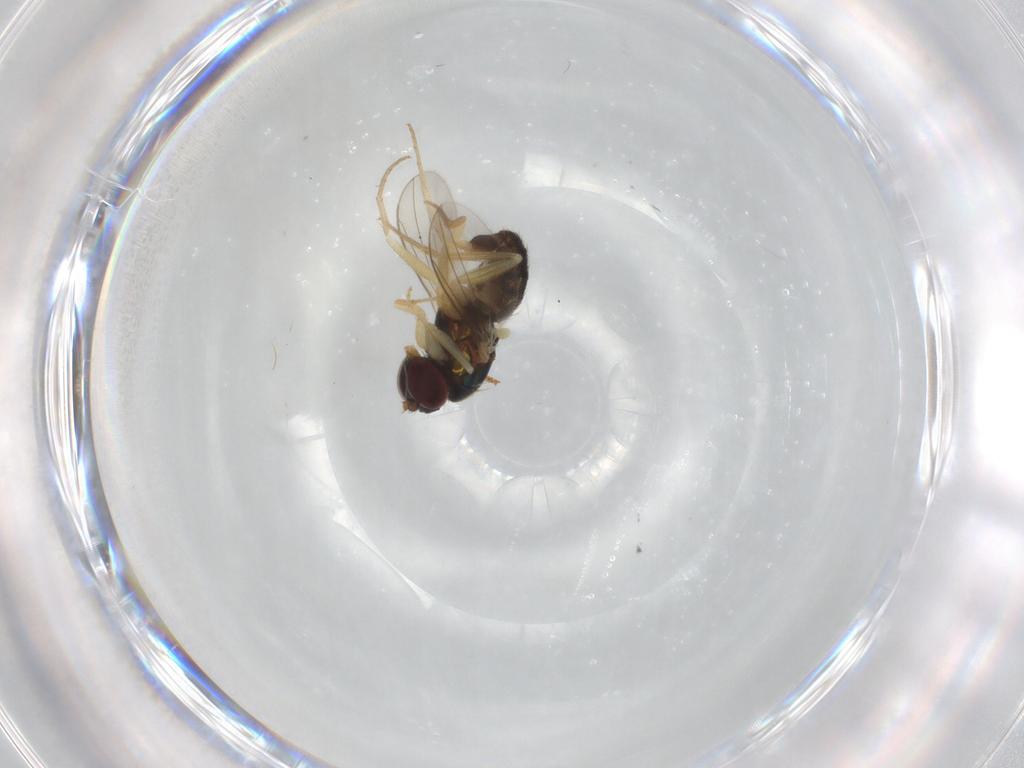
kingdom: Animalia
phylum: Arthropoda
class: Insecta
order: Diptera
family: Dolichopodidae
